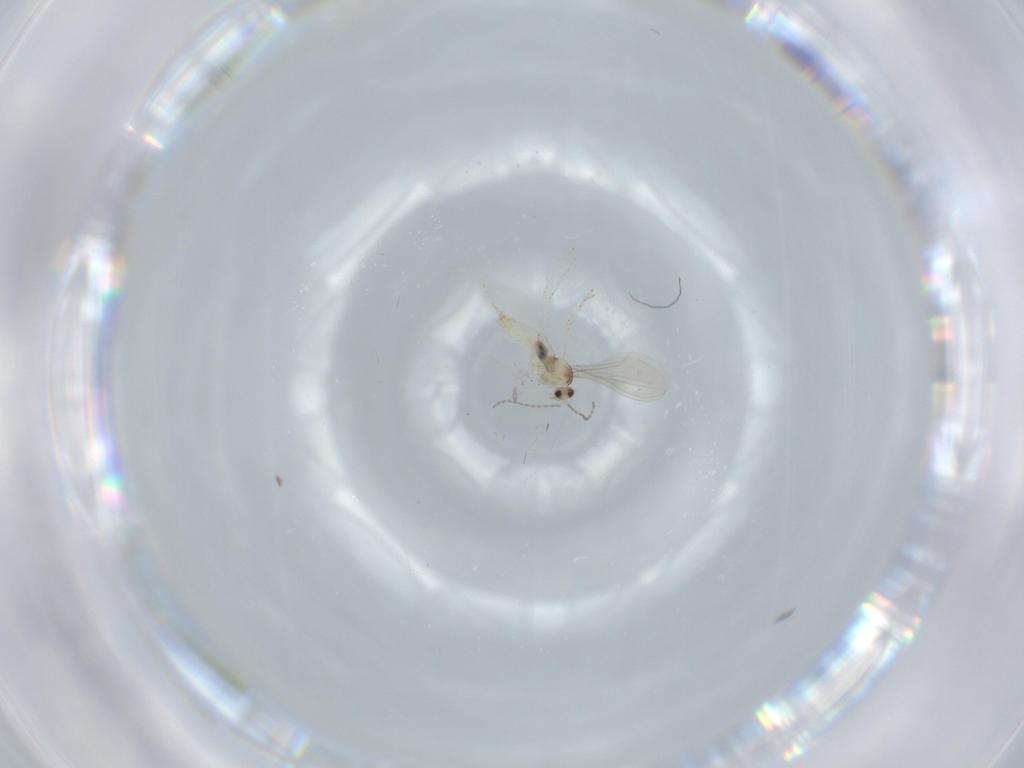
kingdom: Animalia
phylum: Arthropoda
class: Insecta
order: Diptera
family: Cecidomyiidae
